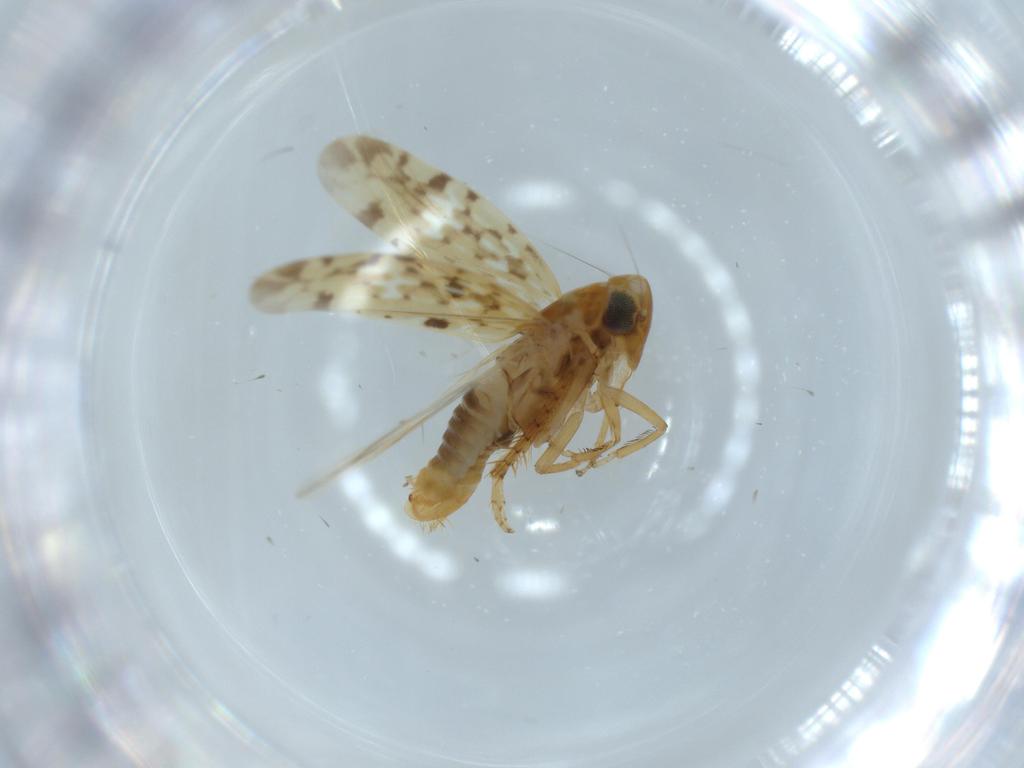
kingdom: Animalia
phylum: Arthropoda
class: Insecta
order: Hemiptera
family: Cicadellidae
